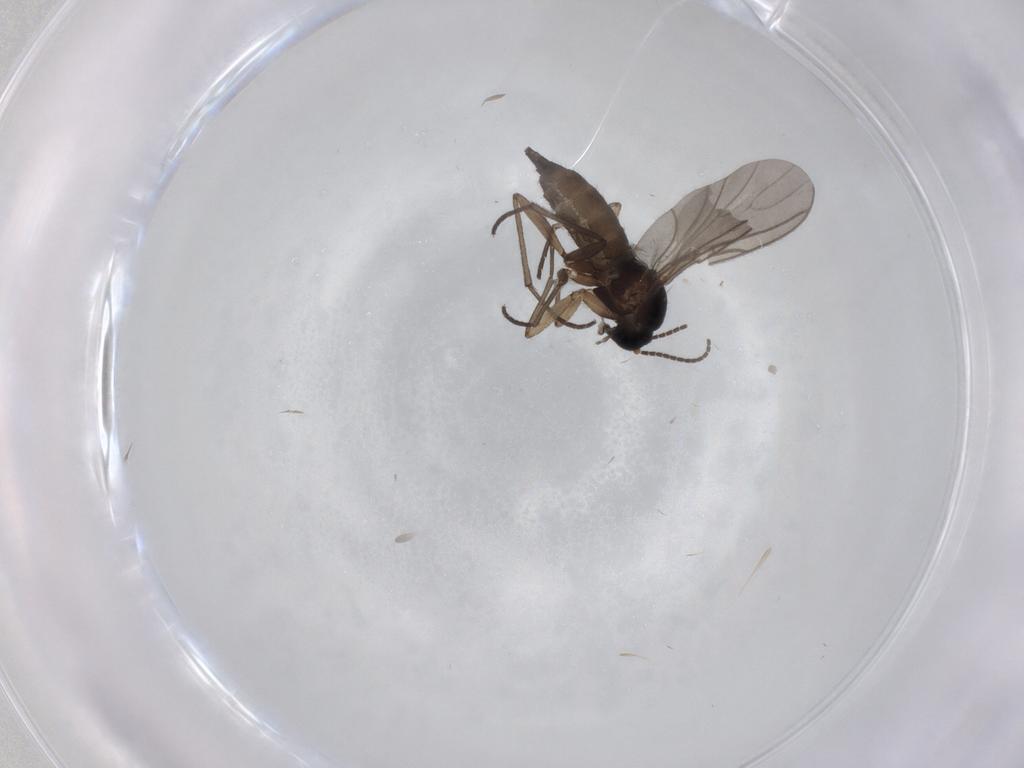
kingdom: Animalia
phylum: Arthropoda
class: Insecta
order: Diptera
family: Sciaridae
